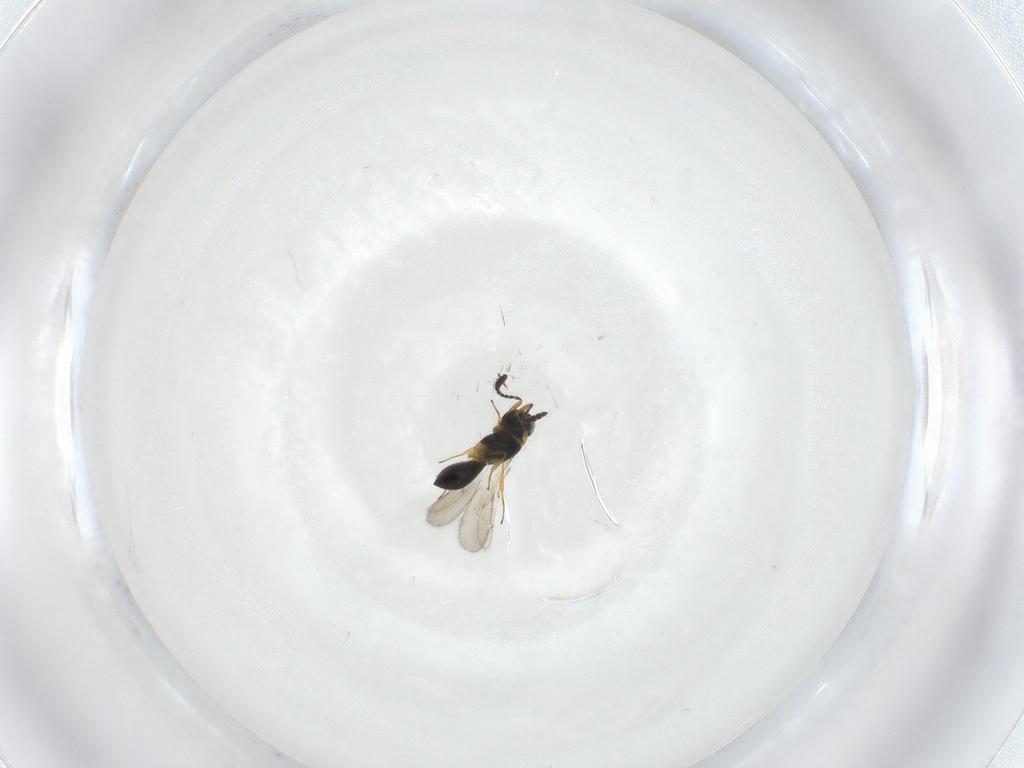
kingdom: Animalia
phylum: Arthropoda
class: Insecta
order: Hymenoptera
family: Scelionidae
